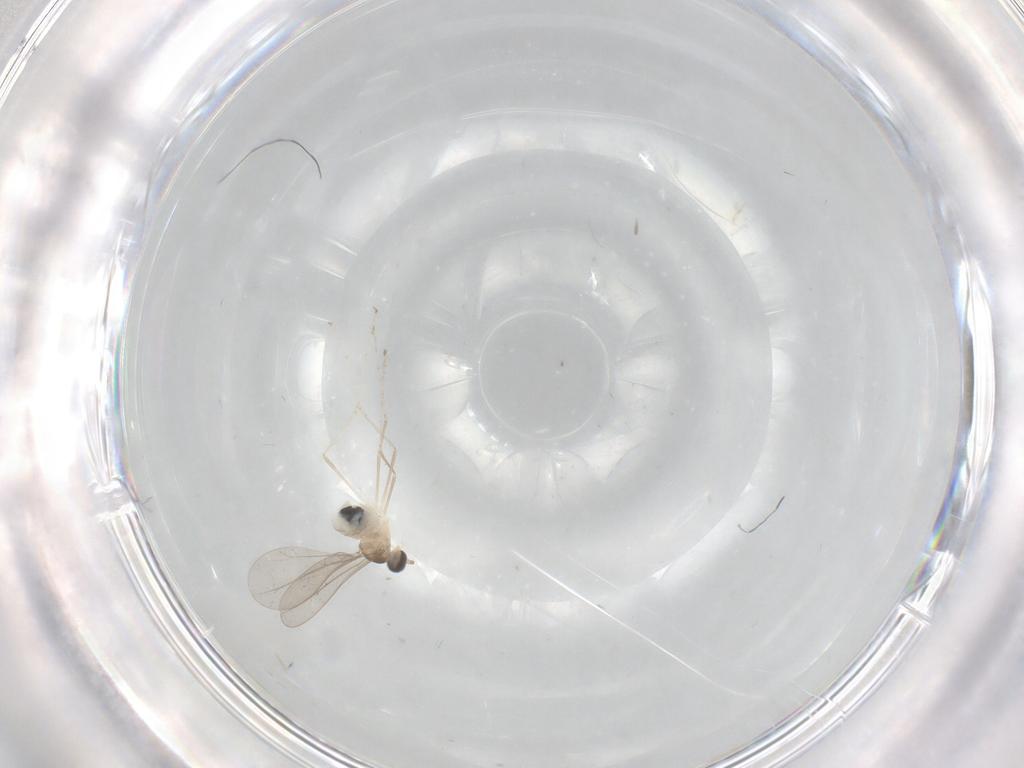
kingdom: Animalia
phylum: Arthropoda
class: Insecta
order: Diptera
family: Cecidomyiidae
